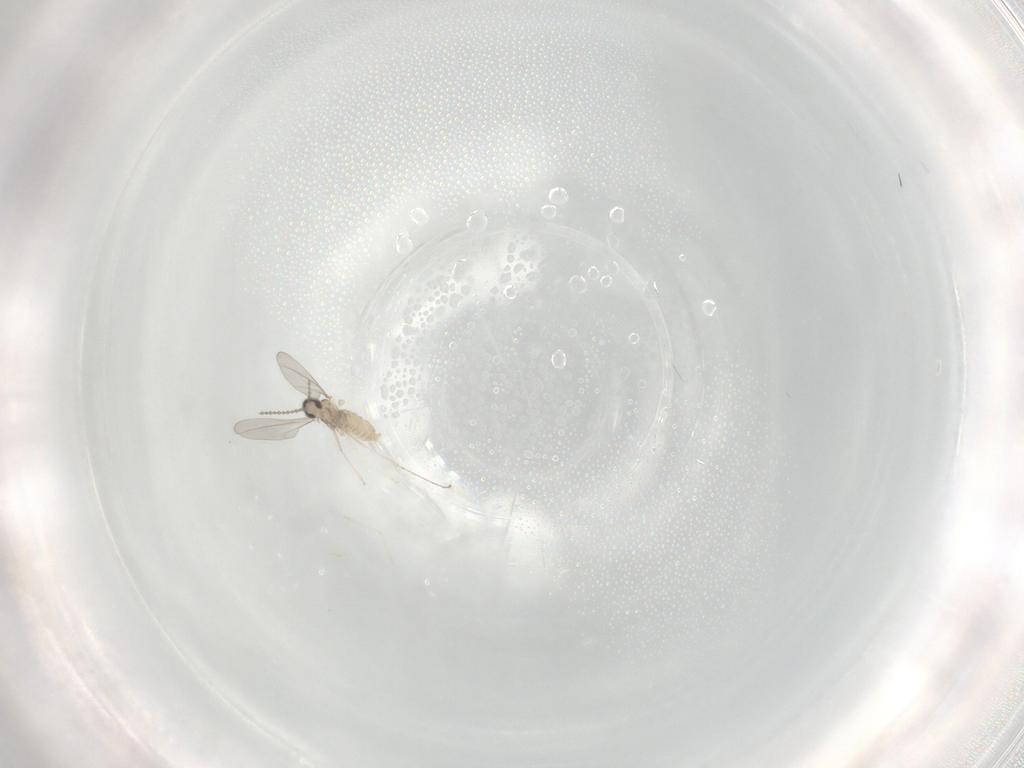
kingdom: Animalia
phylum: Arthropoda
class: Insecta
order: Diptera
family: Cecidomyiidae
